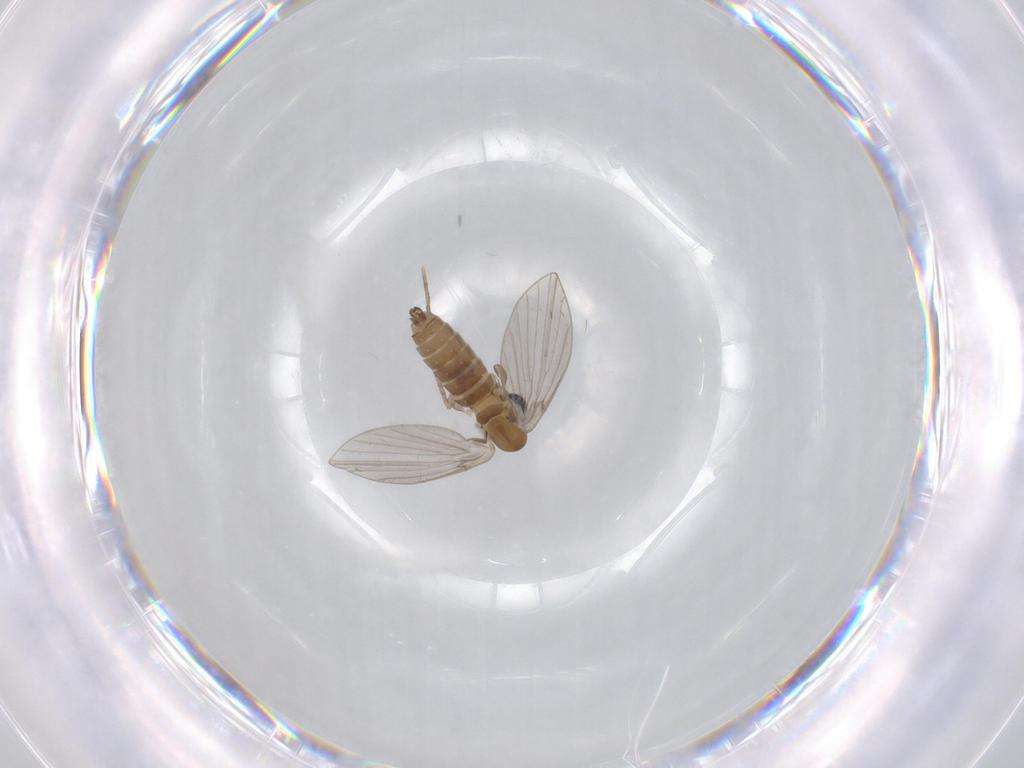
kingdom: Animalia
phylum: Arthropoda
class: Insecta
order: Diptera
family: Limoniidae
